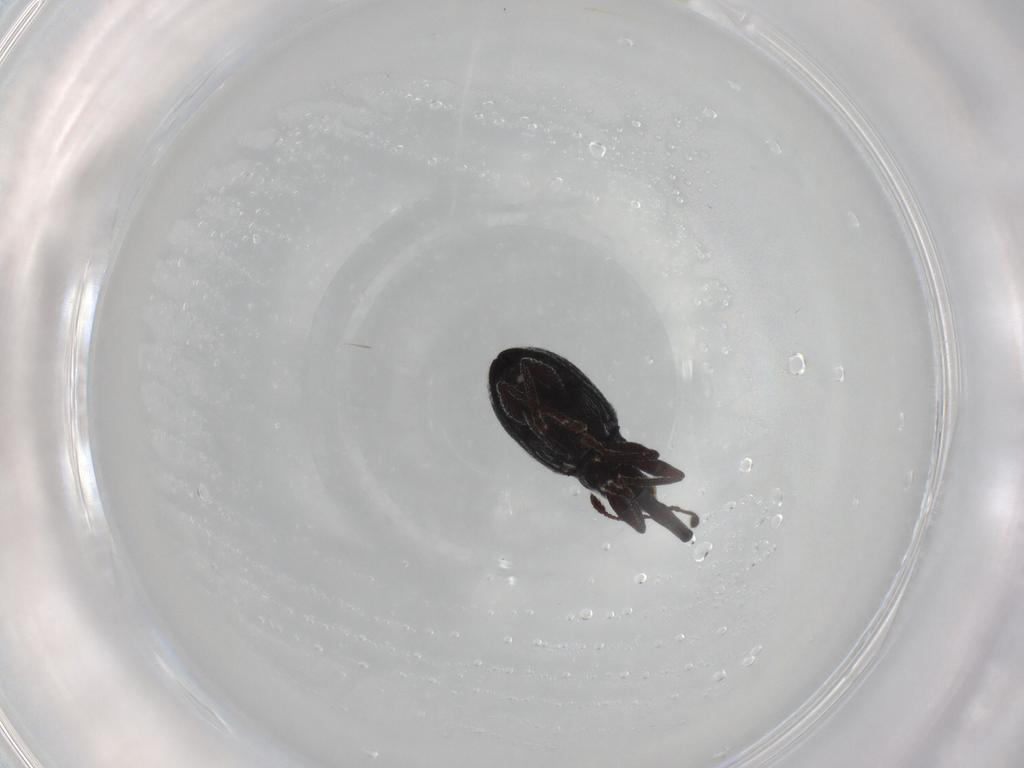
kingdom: Animalia
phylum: Arthropoda
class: Insecta
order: Coleoptera
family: Brentidae
